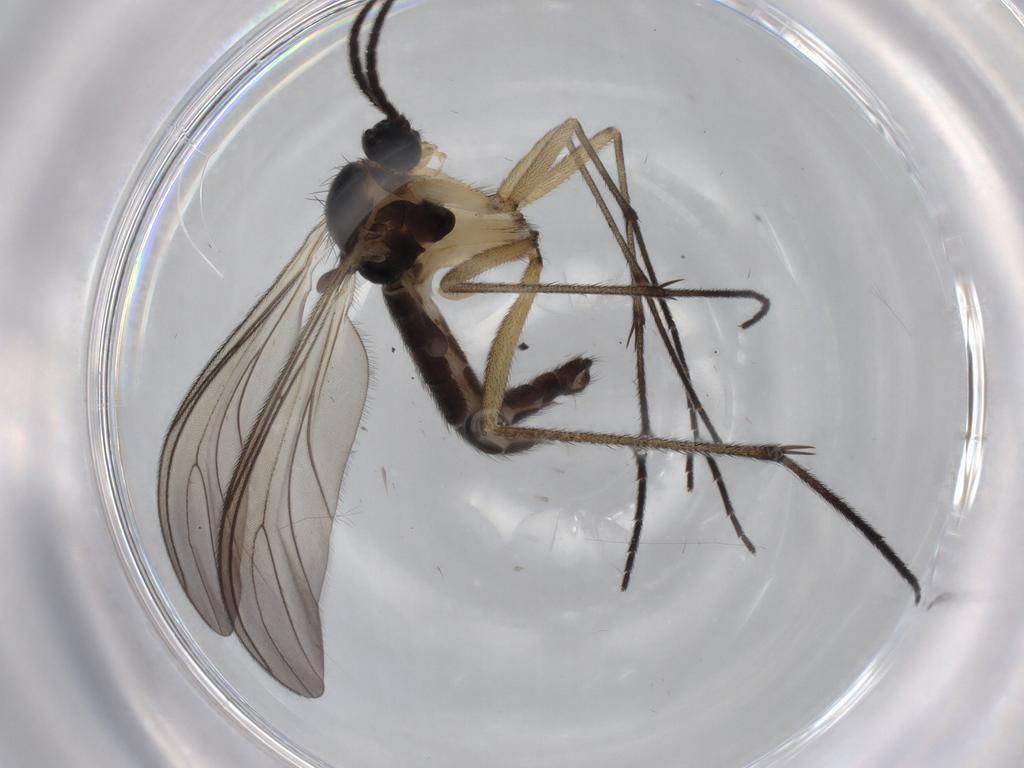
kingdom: Animalia
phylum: Arthropoda
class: Insecta
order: Diptera
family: Sciaridae
